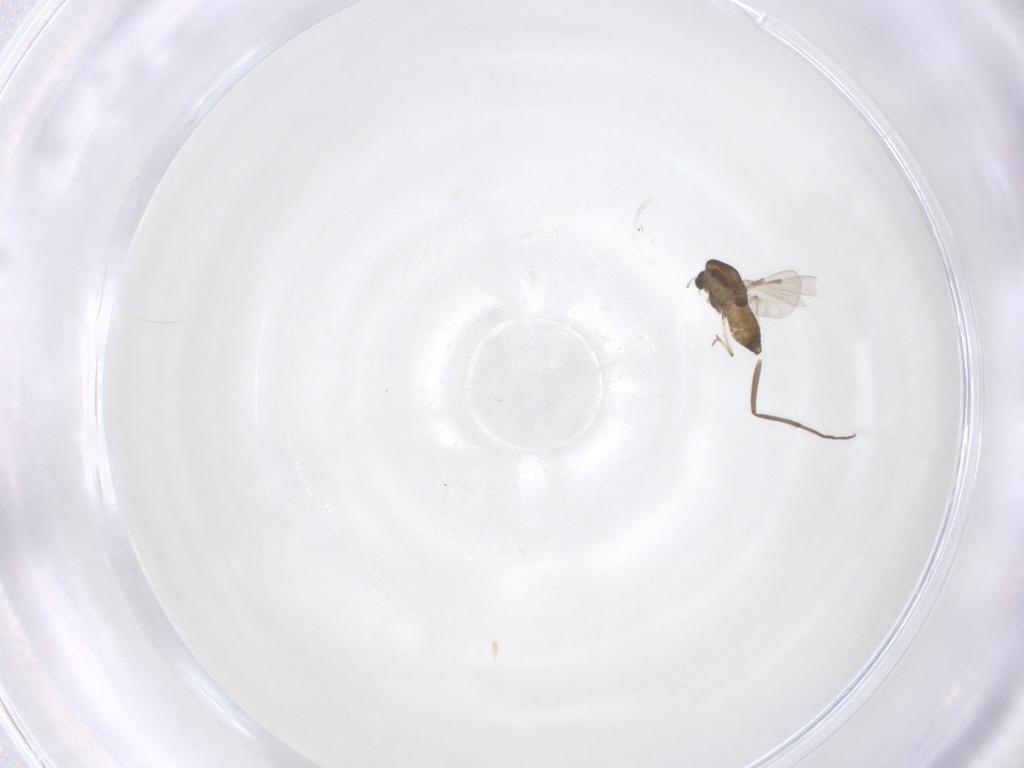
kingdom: Animalia
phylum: Arthropoda
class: Insecta
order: Diptera
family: Chironomidae
